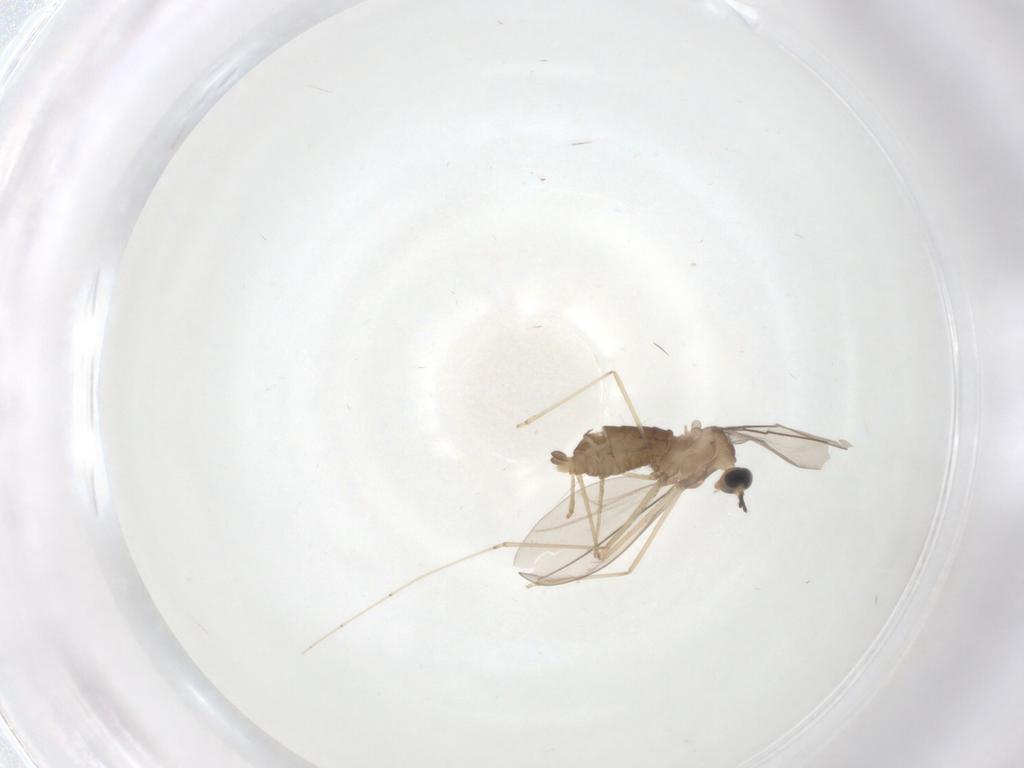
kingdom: Animalia
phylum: Arthropoda
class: Insecta
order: Diptera
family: Cecidomyiidae
